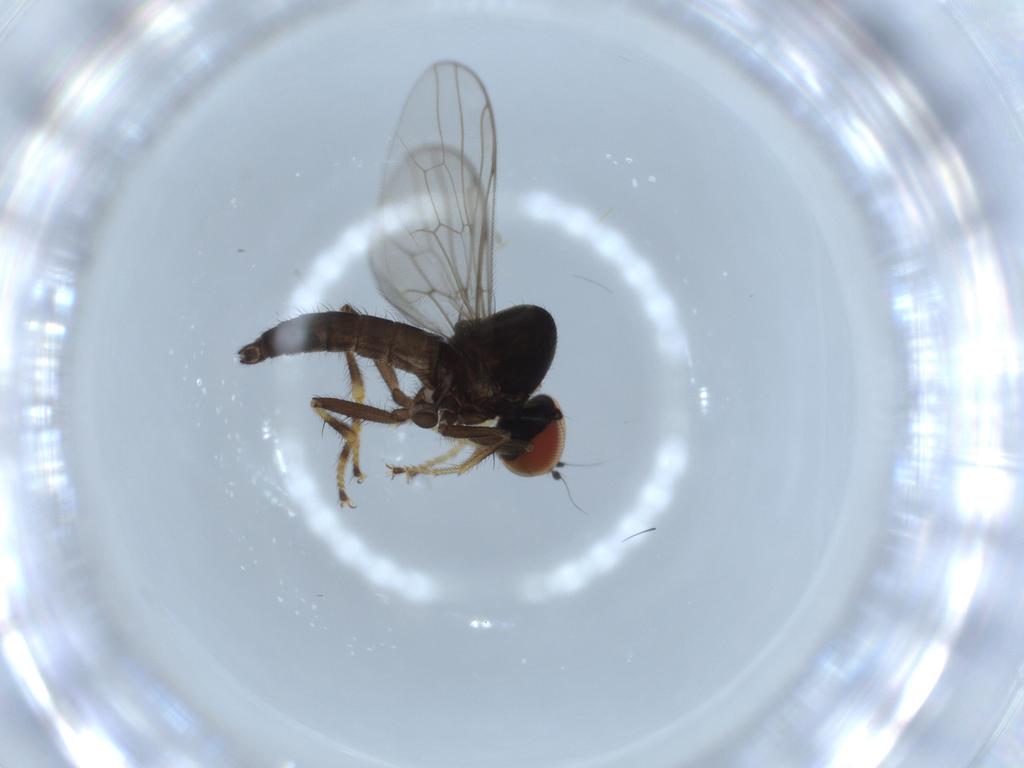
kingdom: Animalia
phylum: Arthropoda
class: Insecta
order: Diptera
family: Hybotidae
